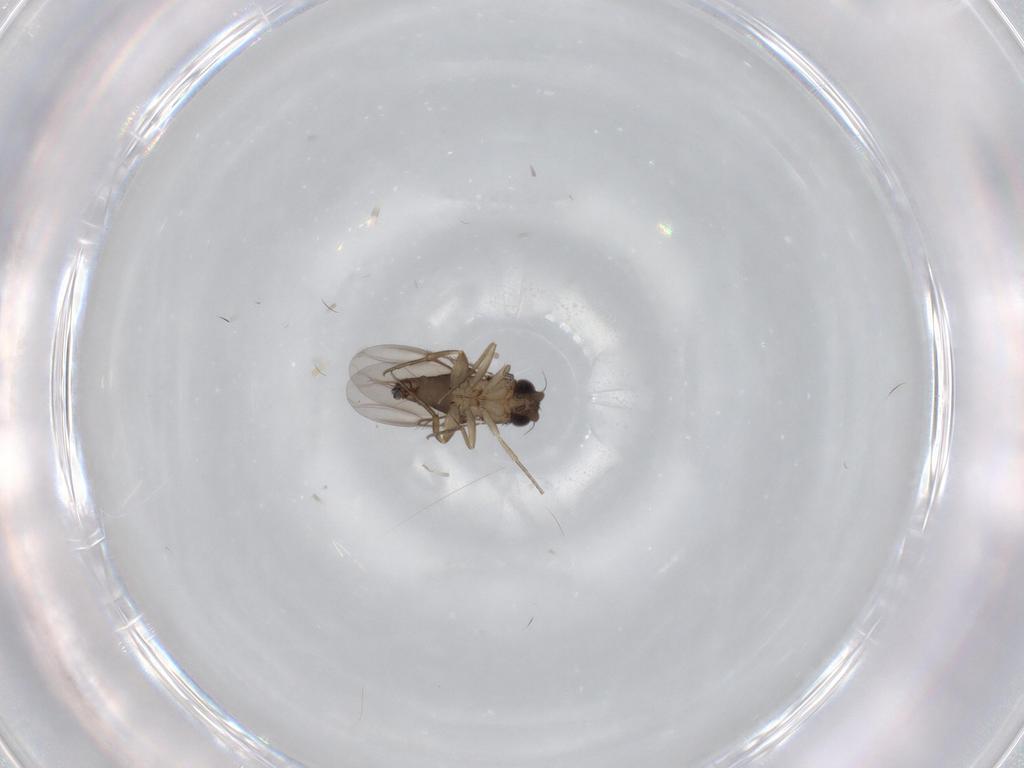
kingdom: Animalia
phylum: Arthropoda
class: Insecta
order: Diptera
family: Phoridae
